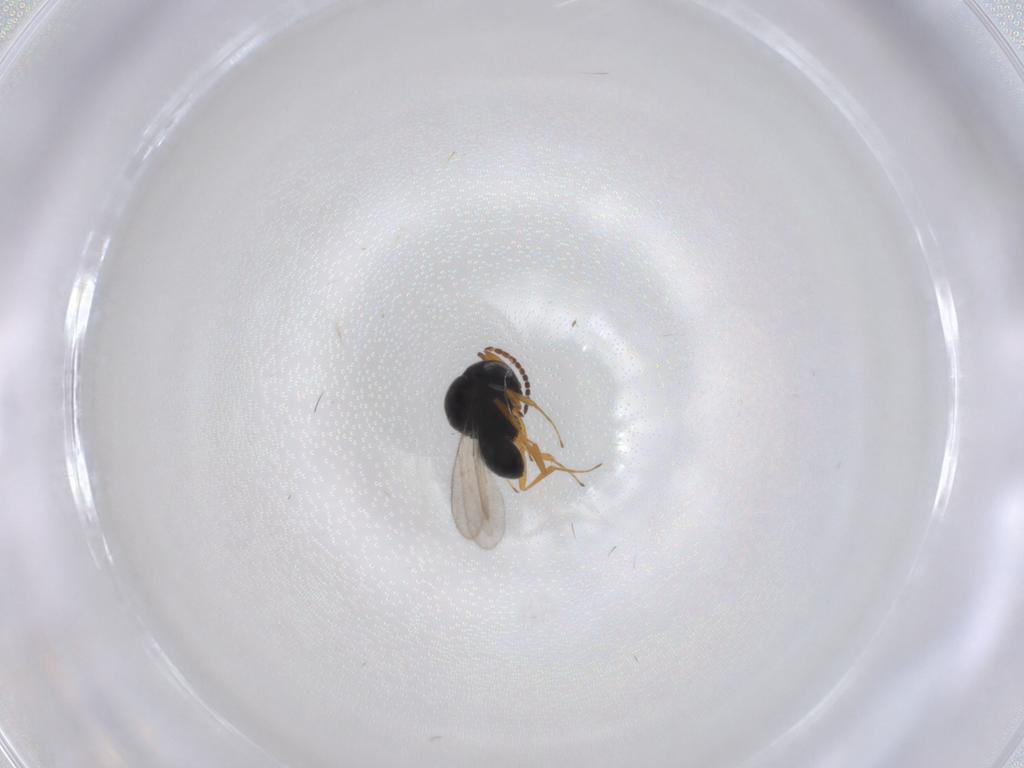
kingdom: Animalia
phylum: Arthropoda
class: Insecta
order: Hymenoptera
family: Scelionidae
